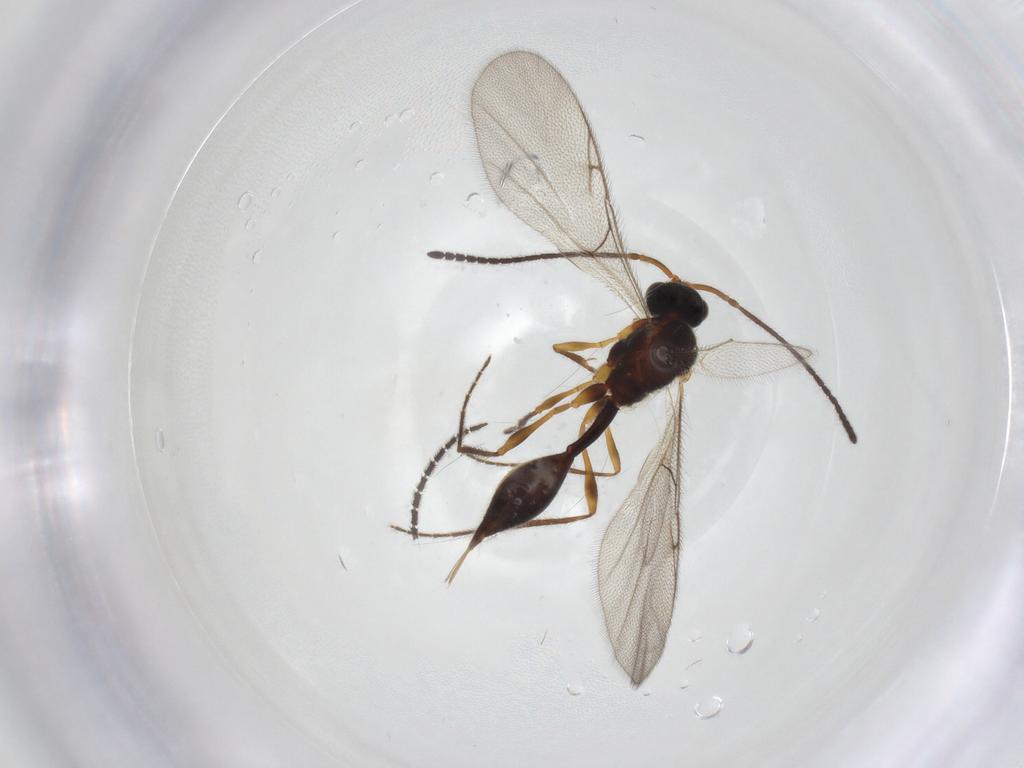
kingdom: Animalia
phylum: Arthropoda
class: Insecta
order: Hymenoptera
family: Diapriidae
